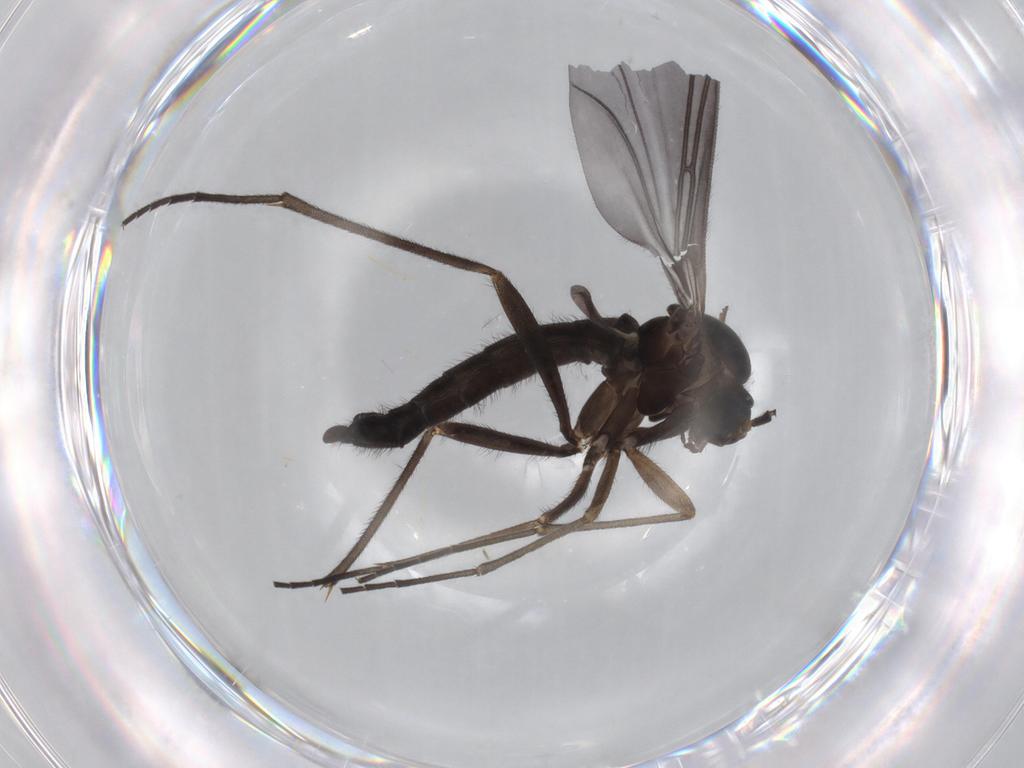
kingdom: Animalia
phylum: Arthropoda
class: Insecta
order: Diptera
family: Sciaridae
